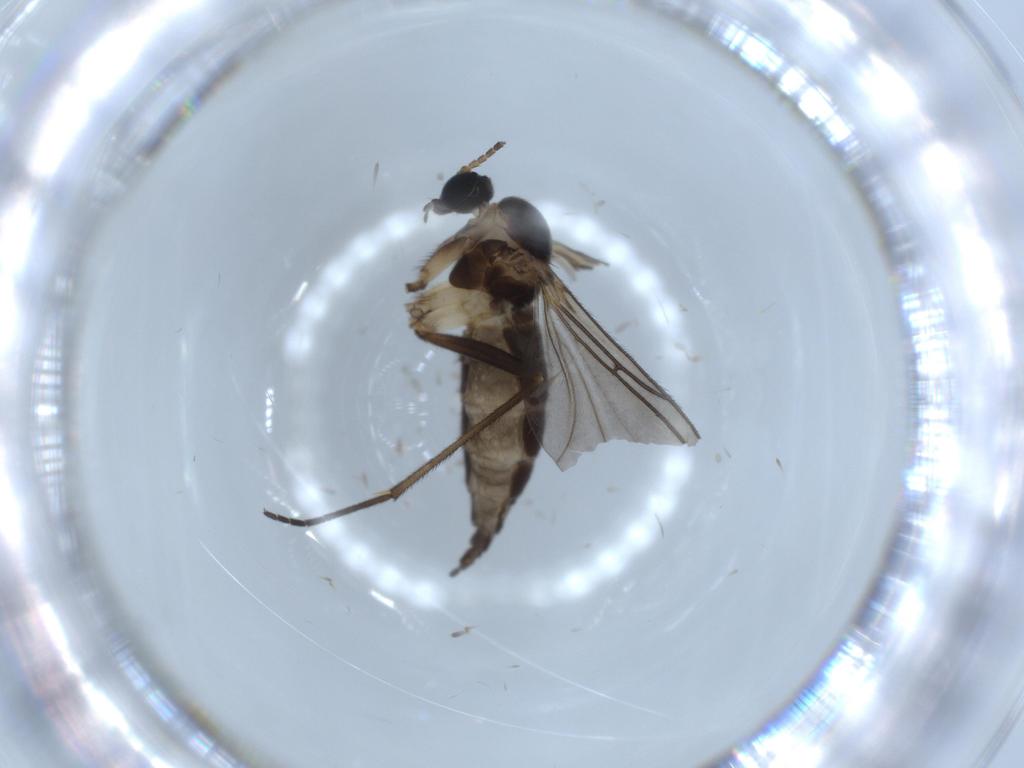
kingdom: Animalia
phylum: Arthropoda
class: Insecta
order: Diptera
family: Sciaridae
